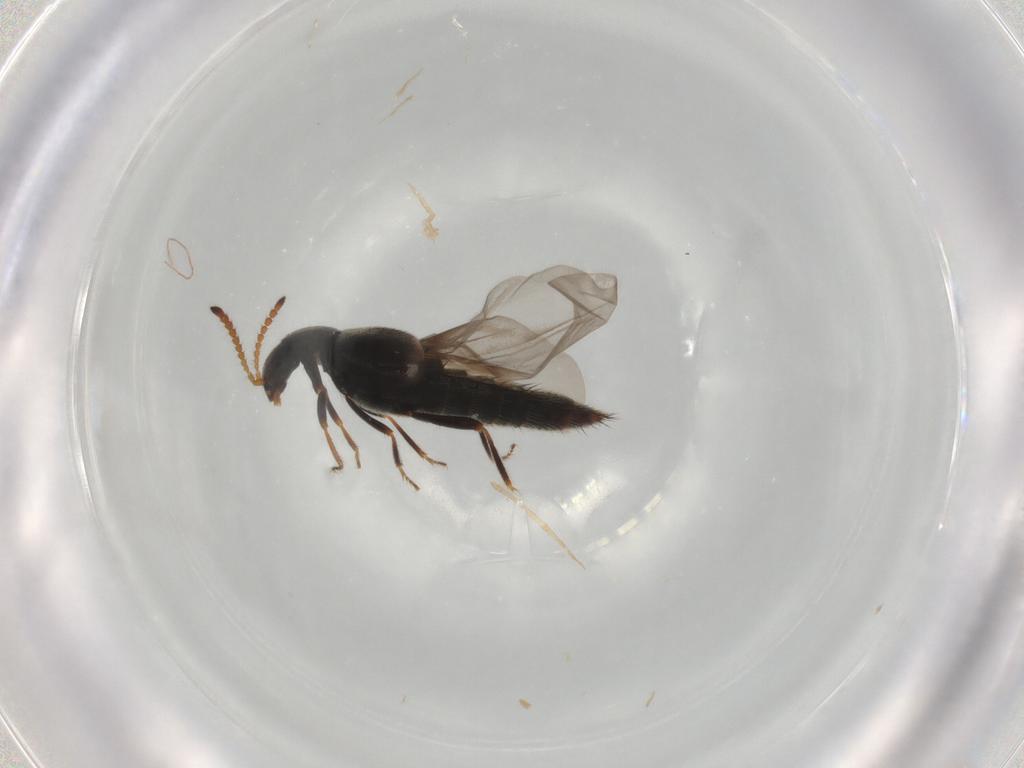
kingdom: Animalia
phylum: Arthropoda
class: Insecta
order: Coleoptera
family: Staphylinidae
